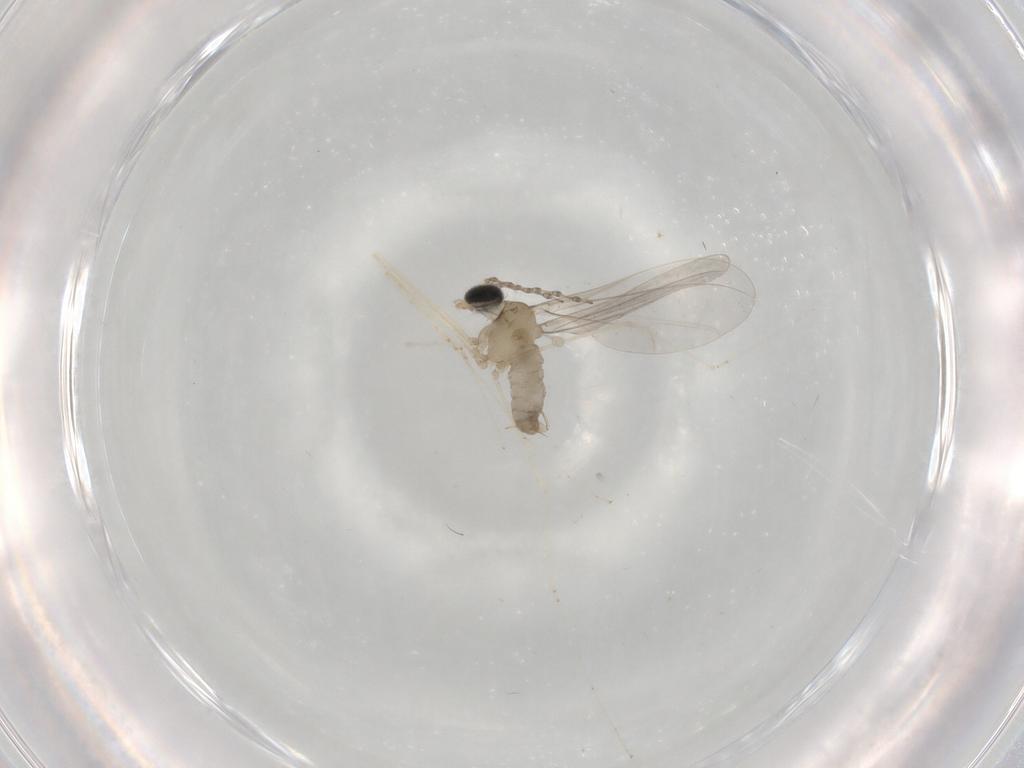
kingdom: Animalia
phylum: Arthropoda
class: Insecta
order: Diptera
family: Cecidomyiidae
